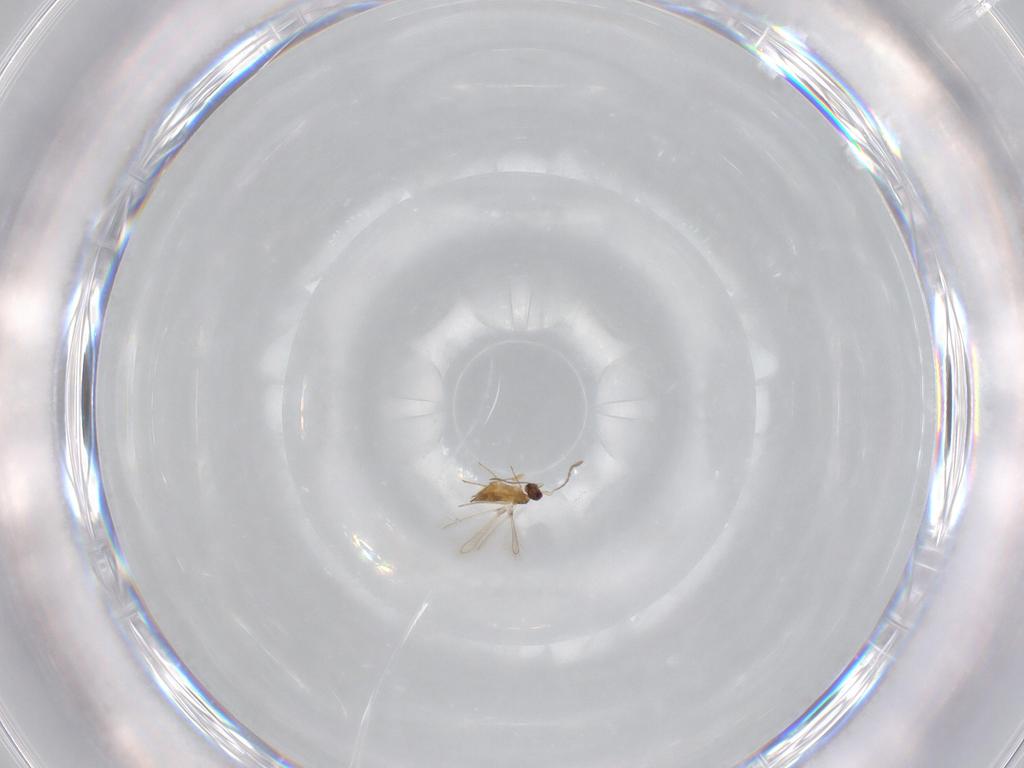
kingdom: Animalia
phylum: Arthropoda
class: Insecta
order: Hymenoptera
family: Mymaridae
